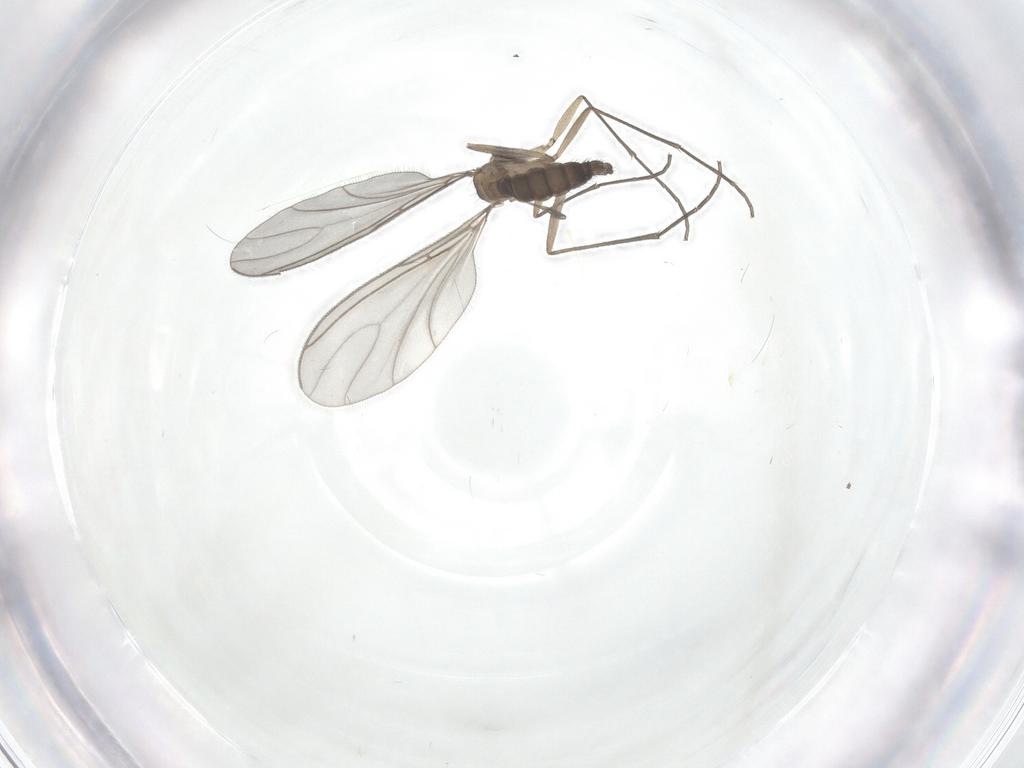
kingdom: Animalia
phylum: Arthropoda
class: Insecta
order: Diptera
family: Sciaridae
